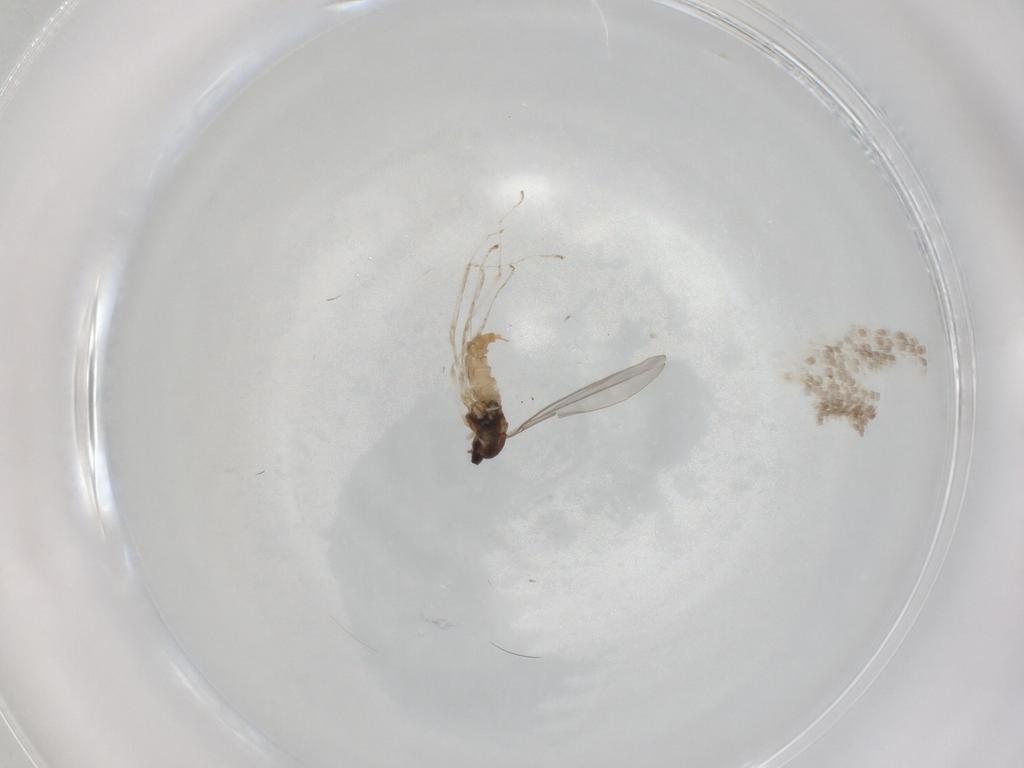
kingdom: Animalia
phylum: Arthropoda
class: Insecta
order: Diptera
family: Cecidomyiidae
